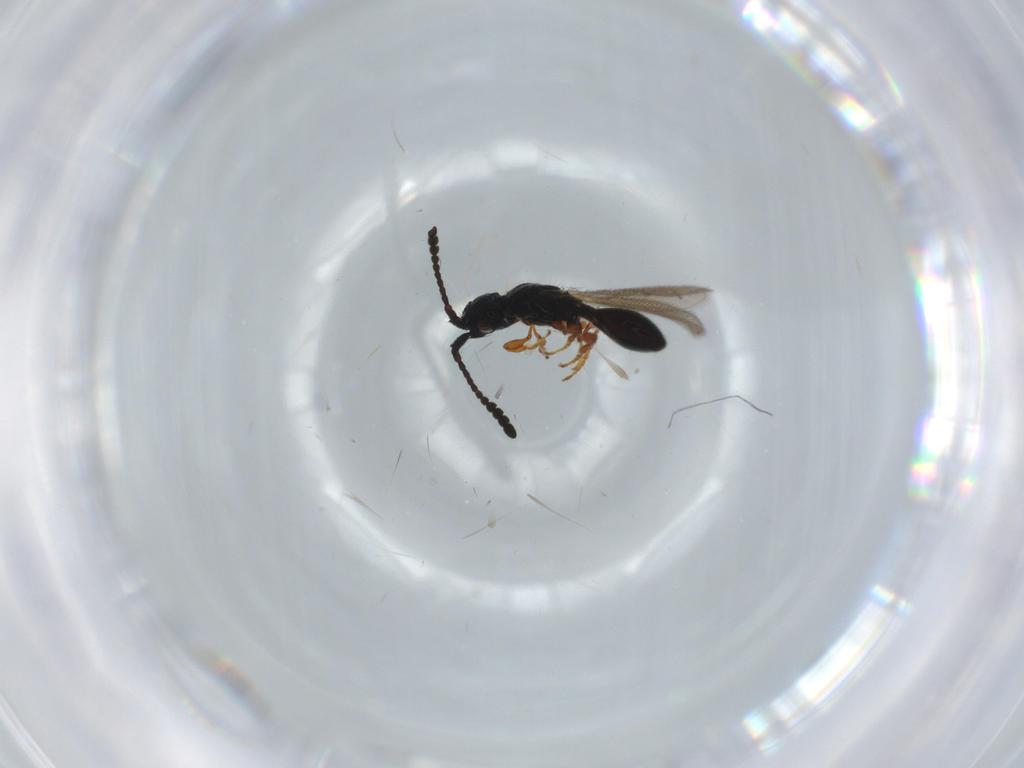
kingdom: Animalia
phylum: Arthropoda
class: Insecta
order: Hymenoptera
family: Diapriidae
